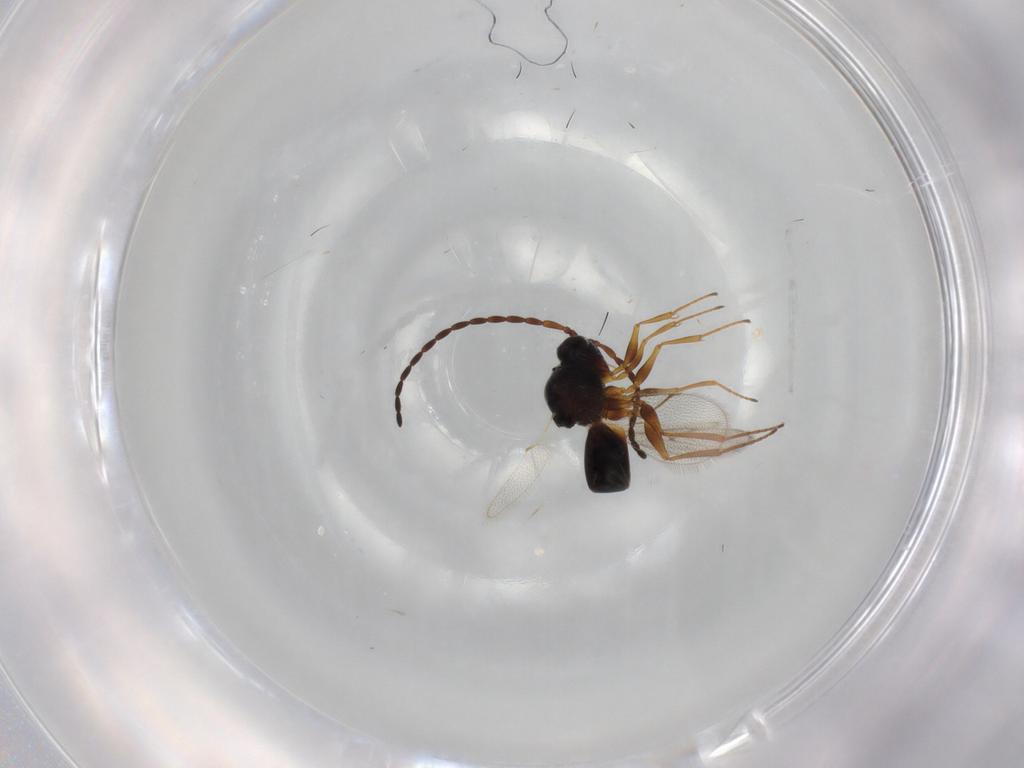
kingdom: Animalia
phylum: Arthropoda
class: Insecta
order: Hymenoptera
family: Figitidae
